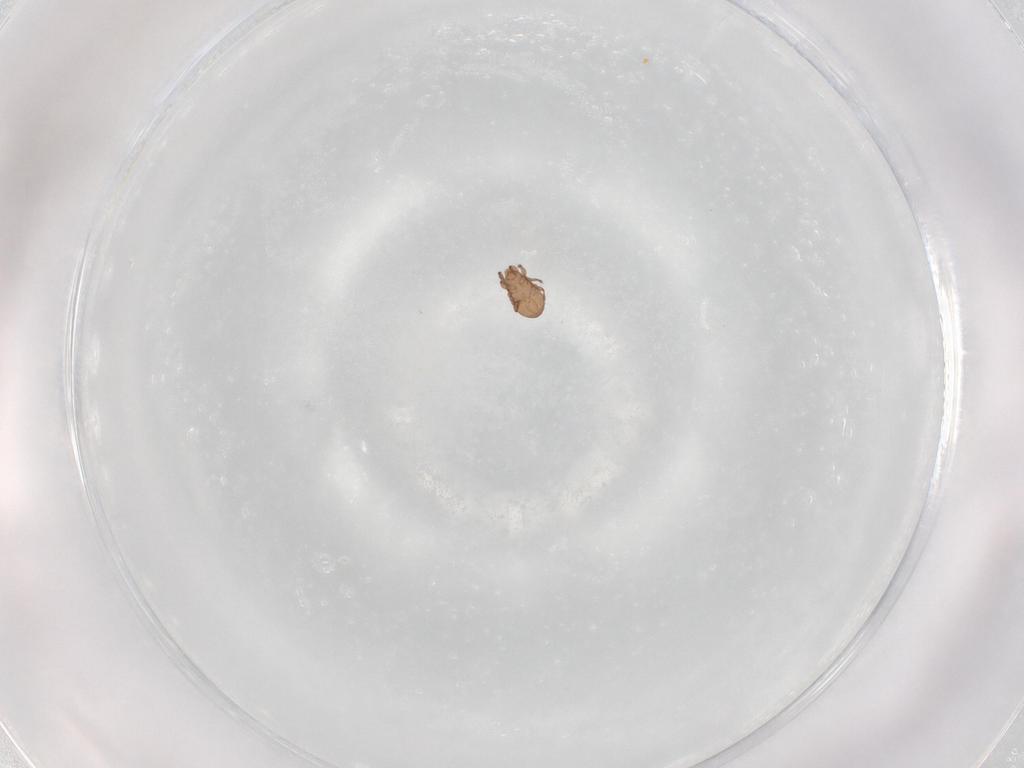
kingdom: Animalia
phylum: Arthropoda
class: Arachnida
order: Sarcoptiformes
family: Eremaeidae
